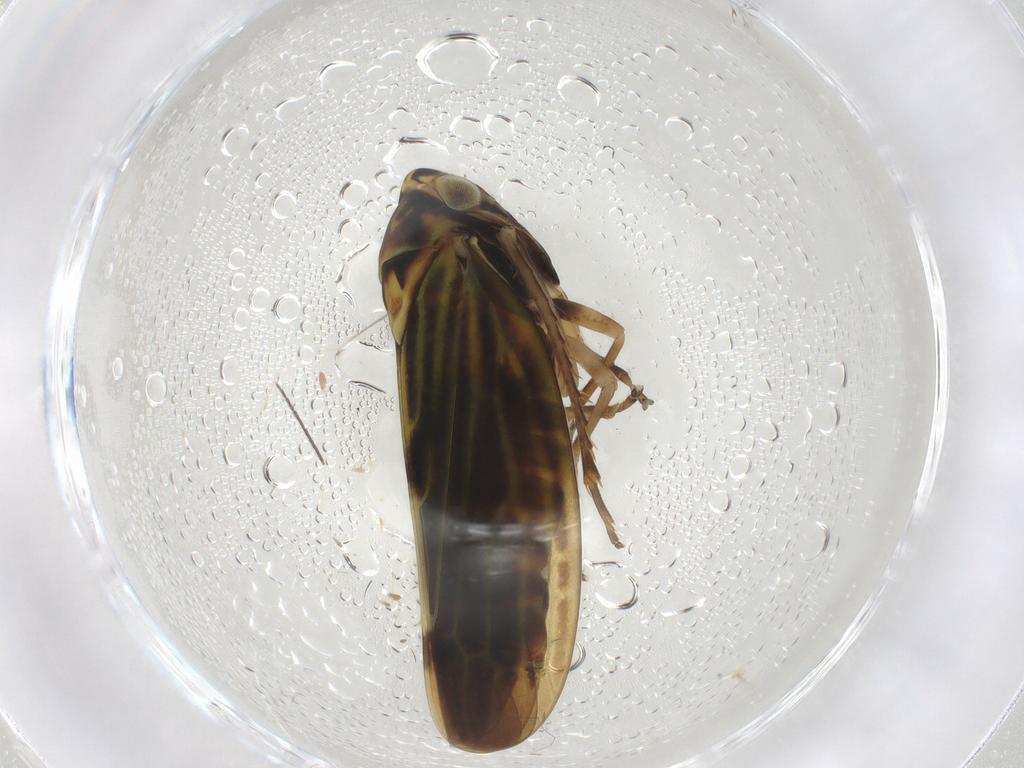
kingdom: Animalia
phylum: Arthropoda
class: Insecta
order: Hemiptera
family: Cicadellidae
